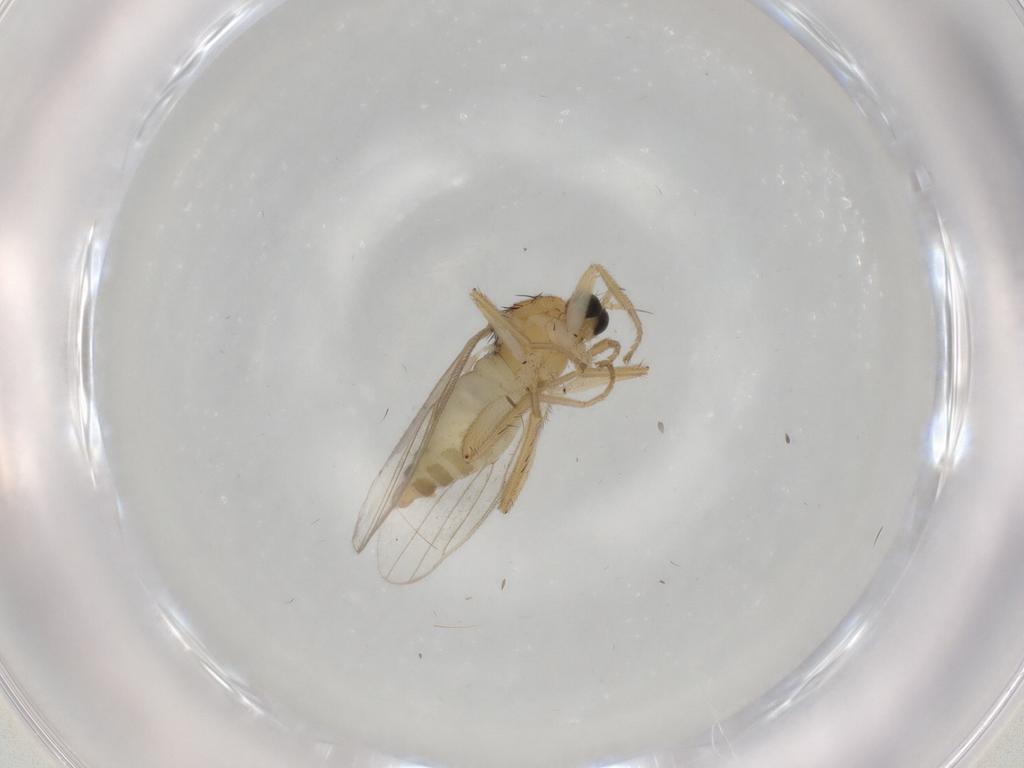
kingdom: Animalia
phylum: Arthropoda
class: Insecta
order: Diptera
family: Hybotidae
